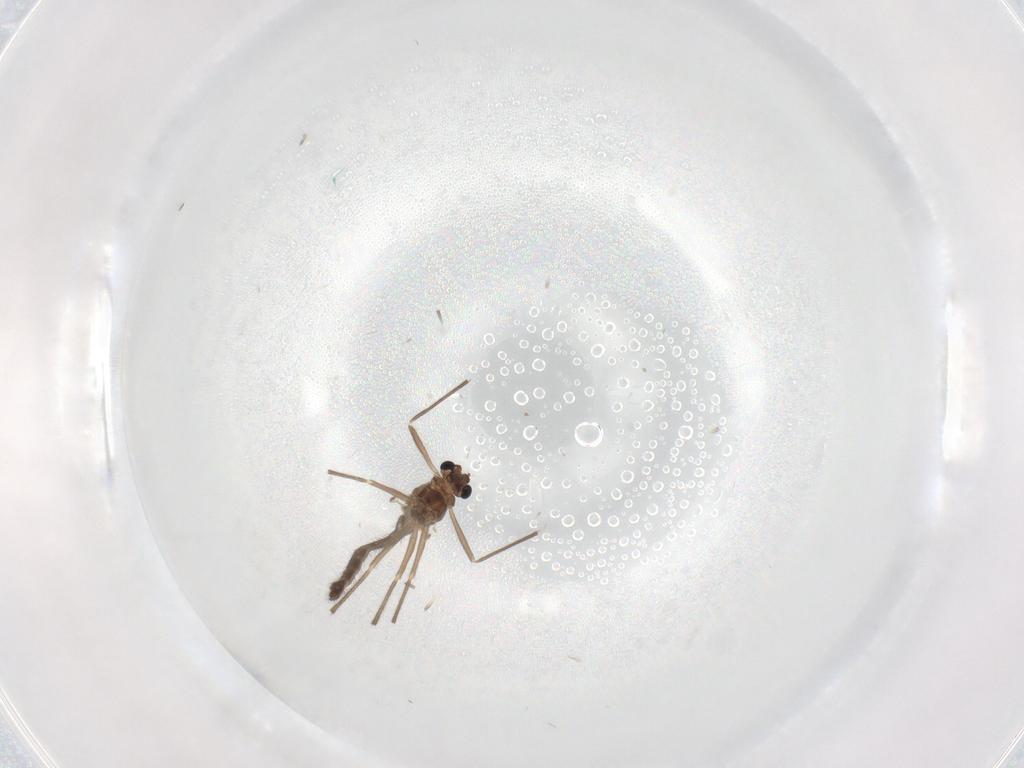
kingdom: Animalia
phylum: Arthropoda
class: Insecta
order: Diptera
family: Chironomidae
